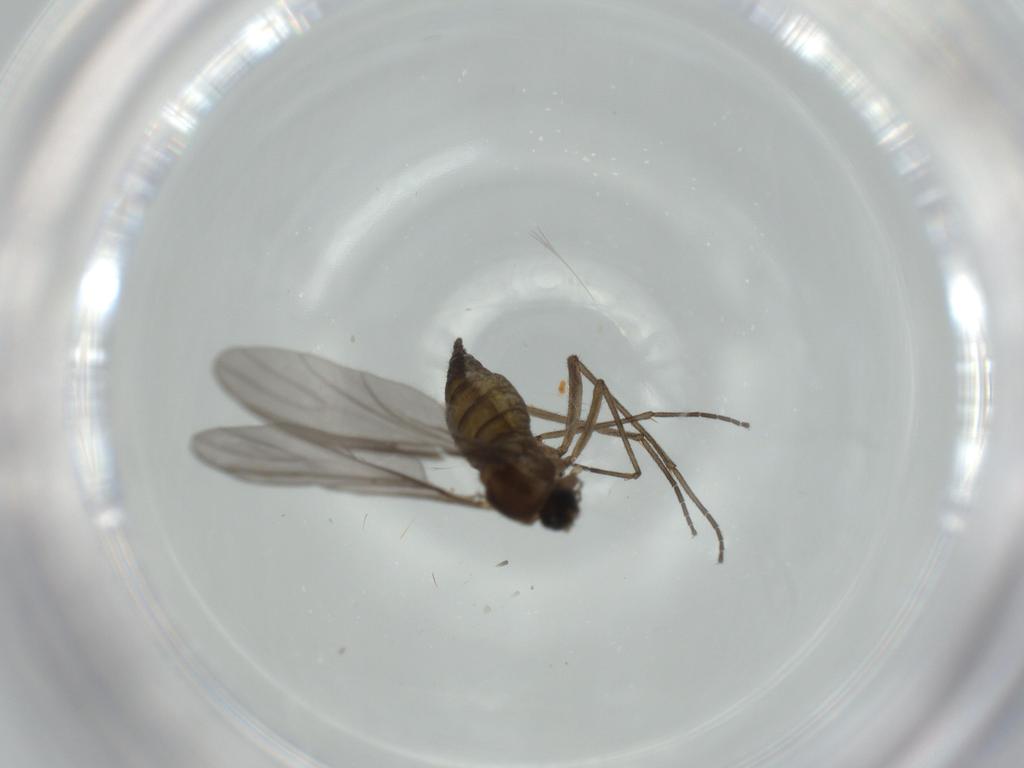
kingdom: Animalia
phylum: Arthropoda
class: Insecta
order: Diptera
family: Sciaridae
